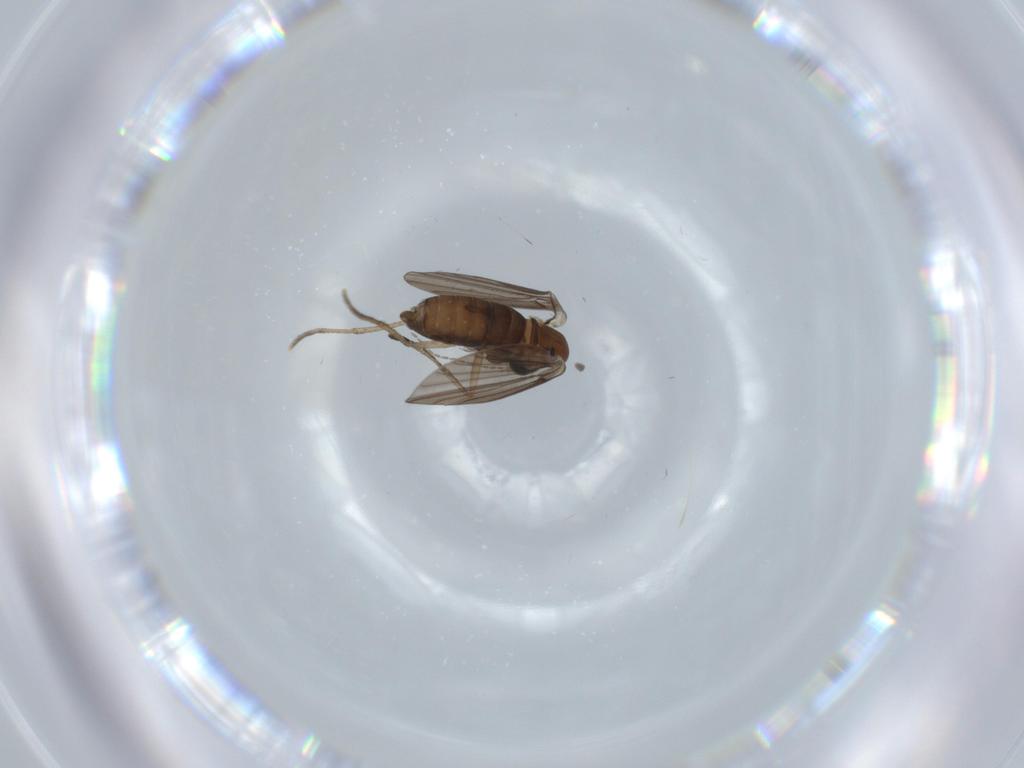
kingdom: Animalia
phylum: Arthropoda
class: Insecta
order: Diptera
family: Psychodidae
